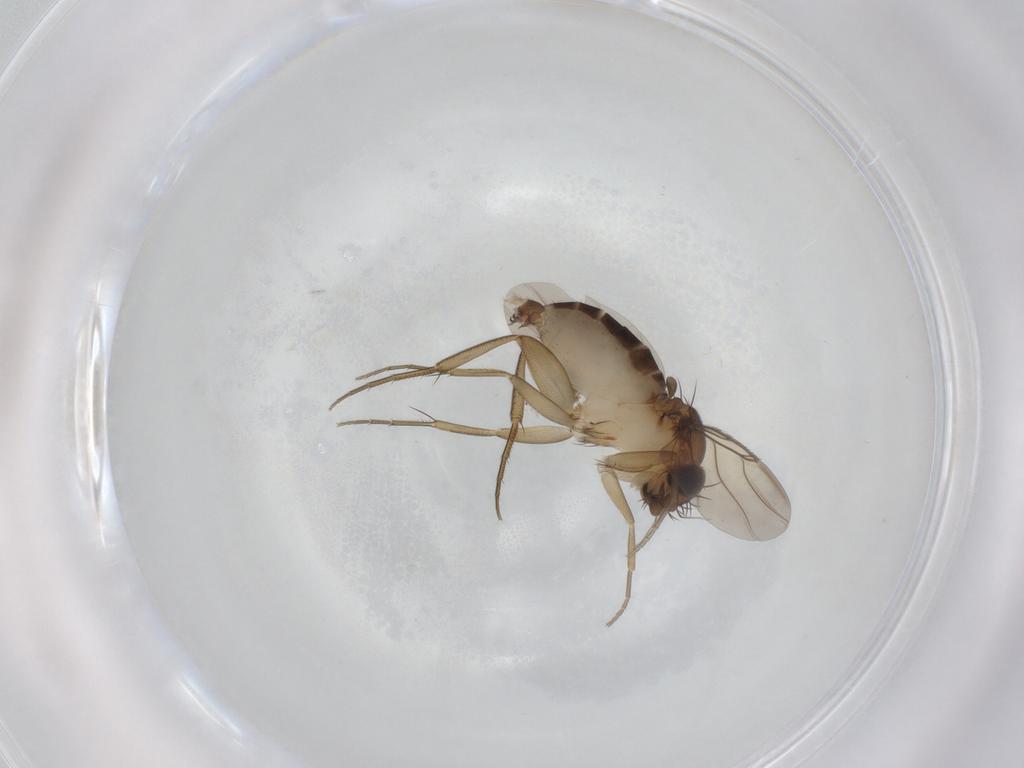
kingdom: Animalia
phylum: Arthropoda
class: Insecta
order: Diptera
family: Phoridae
